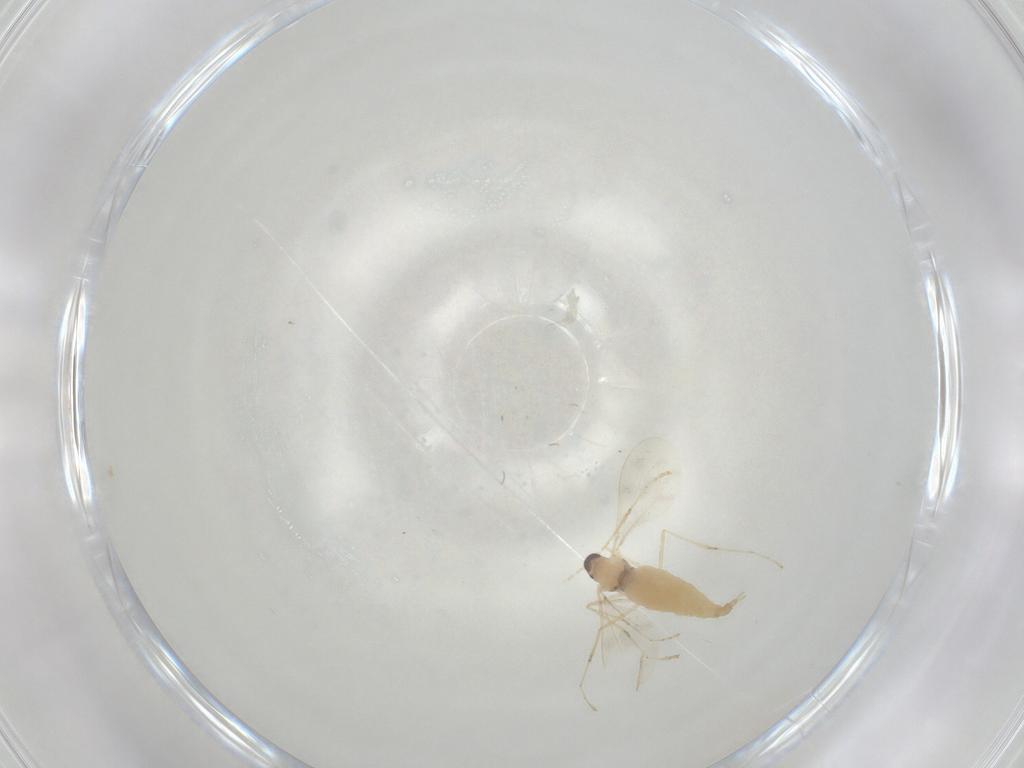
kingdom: Animalia
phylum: Arthropoda
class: Insecta
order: Diptera
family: Cecidomyiidae
